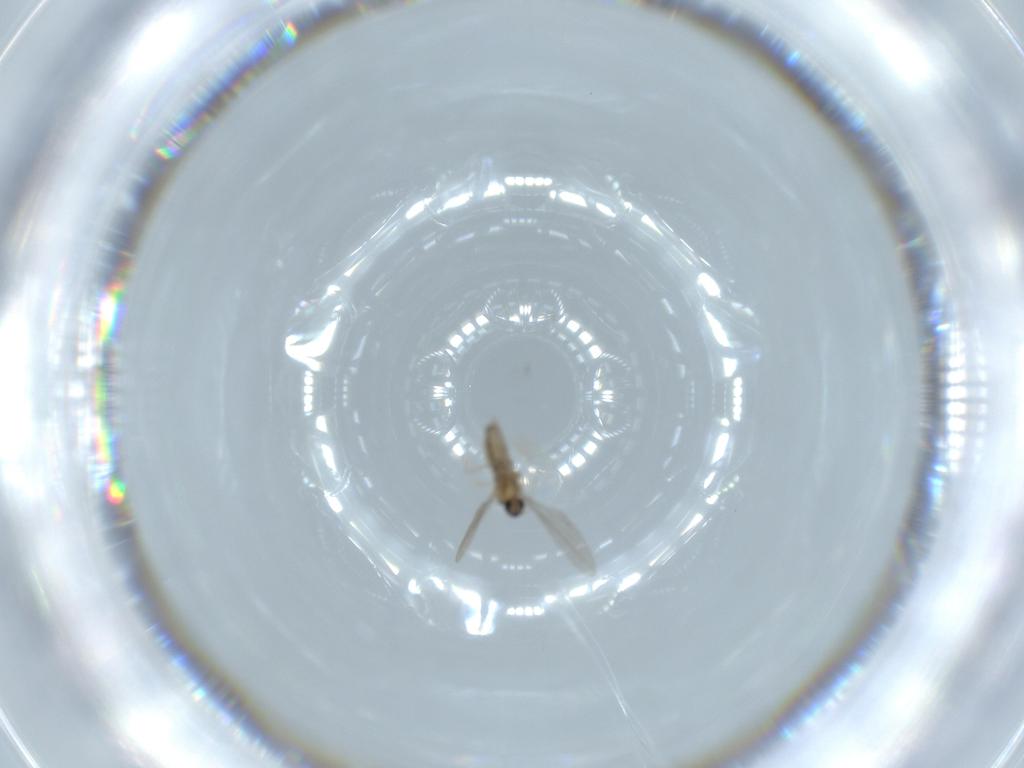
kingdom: Animalia
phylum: Arthropoda
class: Insecta
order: Diptera
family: Cecidomyiidae
